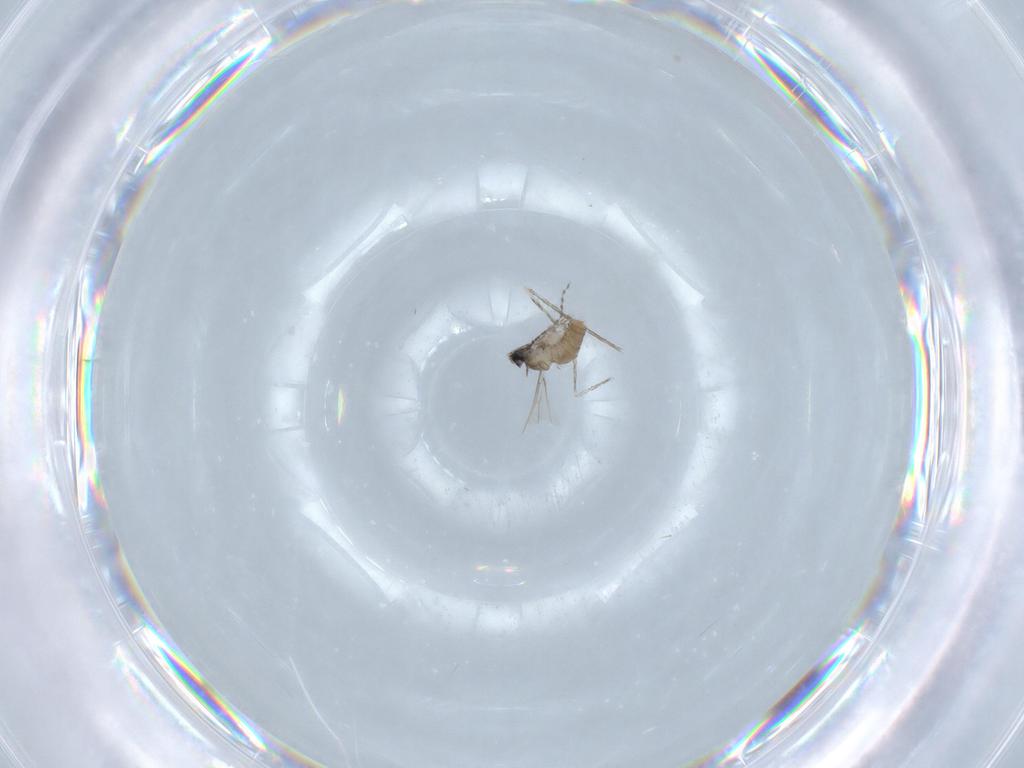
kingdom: Animalia
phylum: Arthropoda
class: Insecta
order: Diptera
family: Cecidomyiidae
